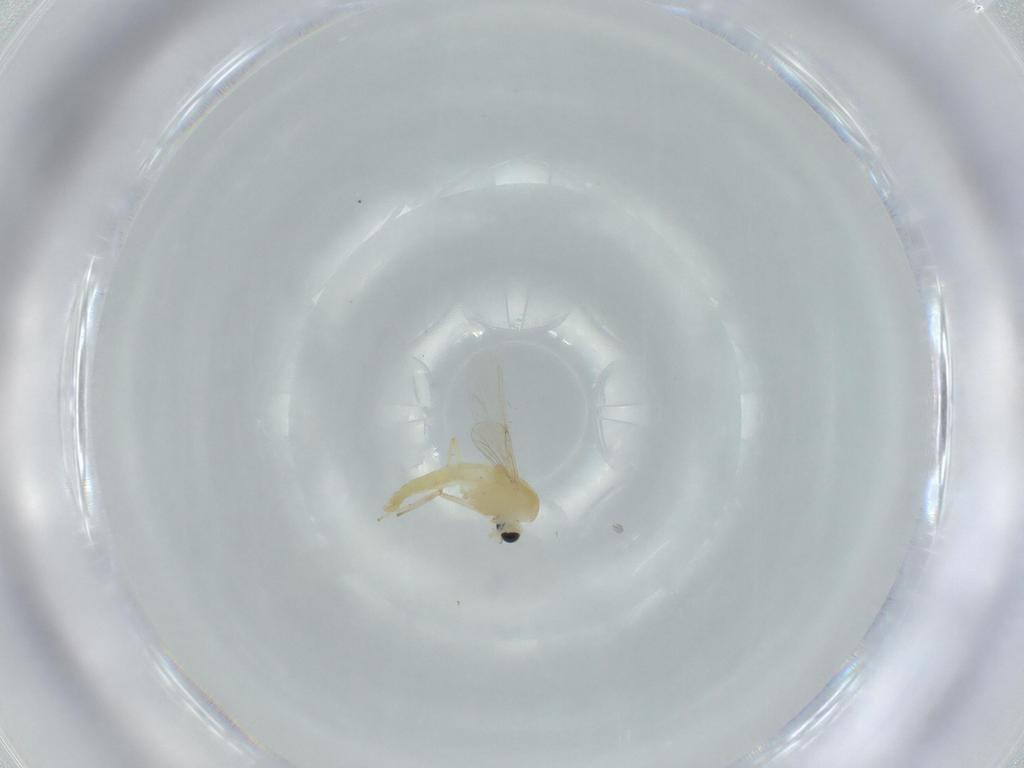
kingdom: Animalia
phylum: Arthropoda
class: Insecta
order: Diptera
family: Chironomidae
